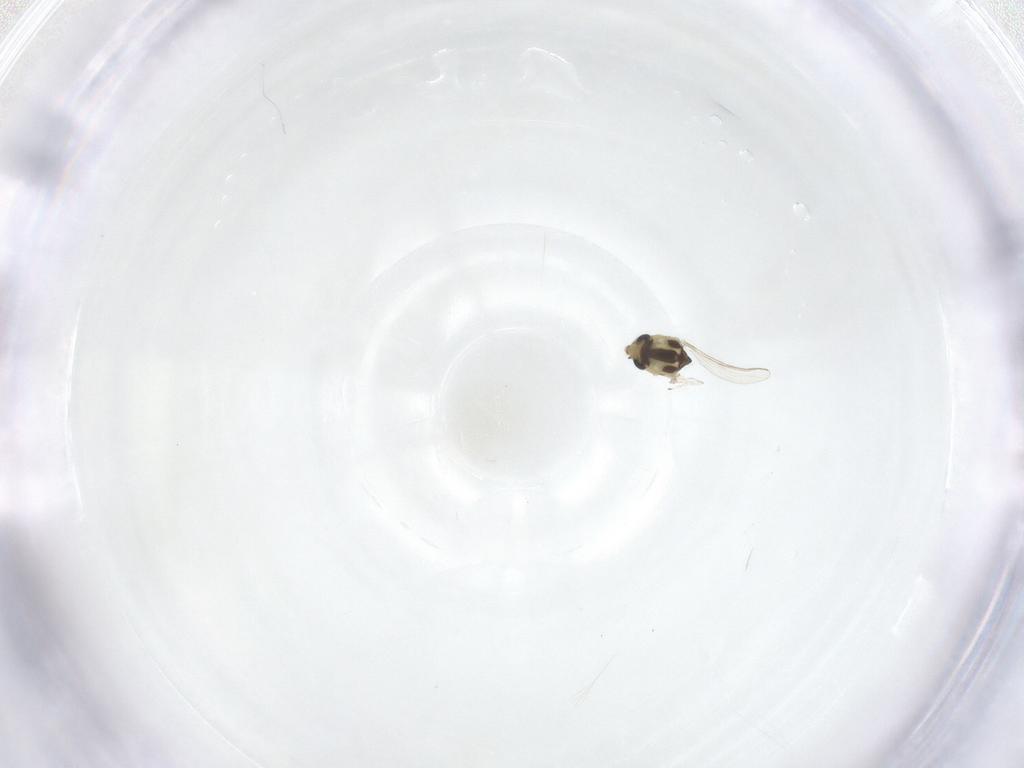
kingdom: Animalia
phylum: Arthropoda
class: Insecta
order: Diptera
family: Chironomidae
